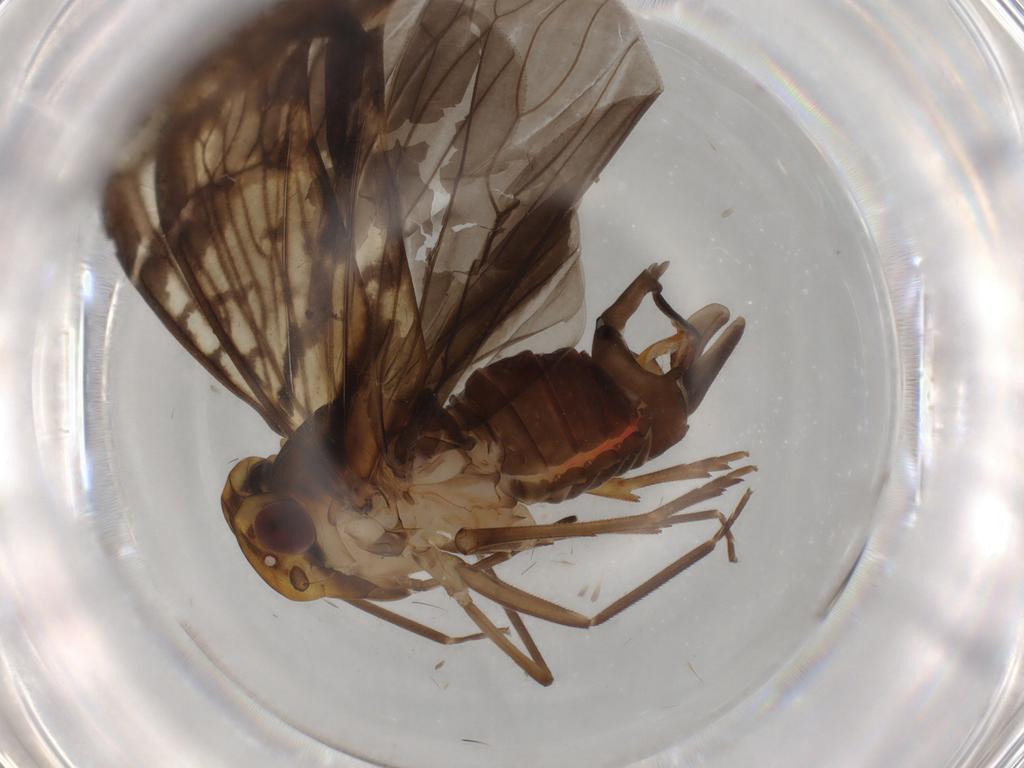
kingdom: Animalia
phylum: Arthropoda
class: Insecta
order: Hemiptera
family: Cixiidae
